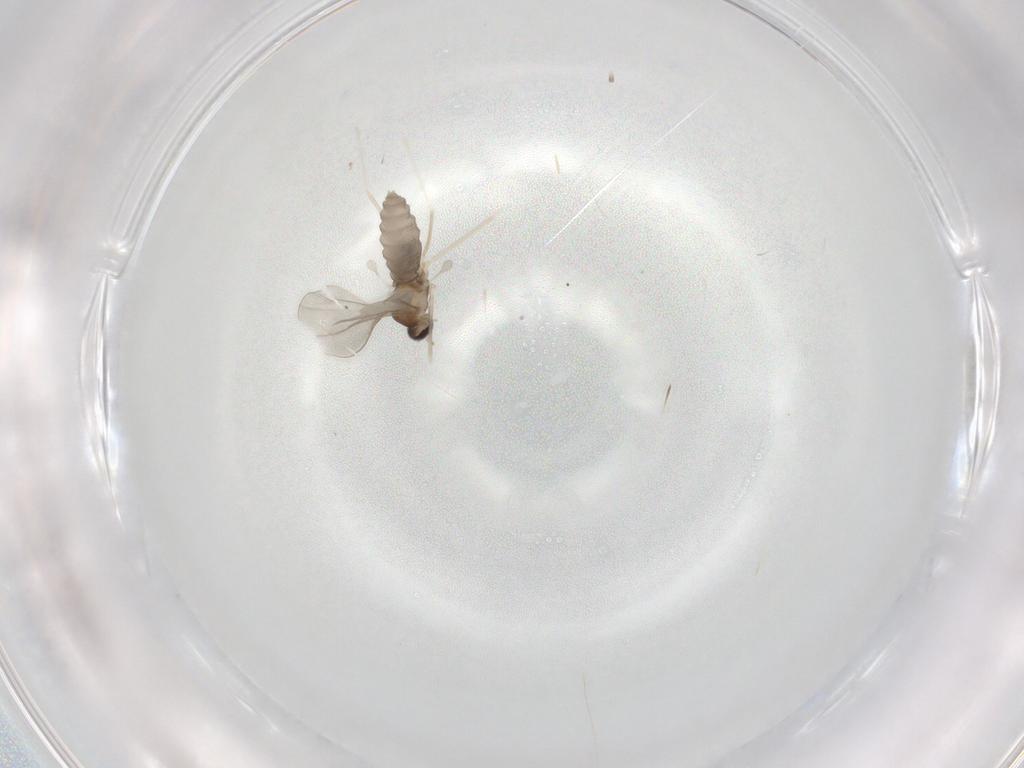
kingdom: Animalia
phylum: Arthropoda
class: Insecta
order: Diptera
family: Cecidomyiidae
